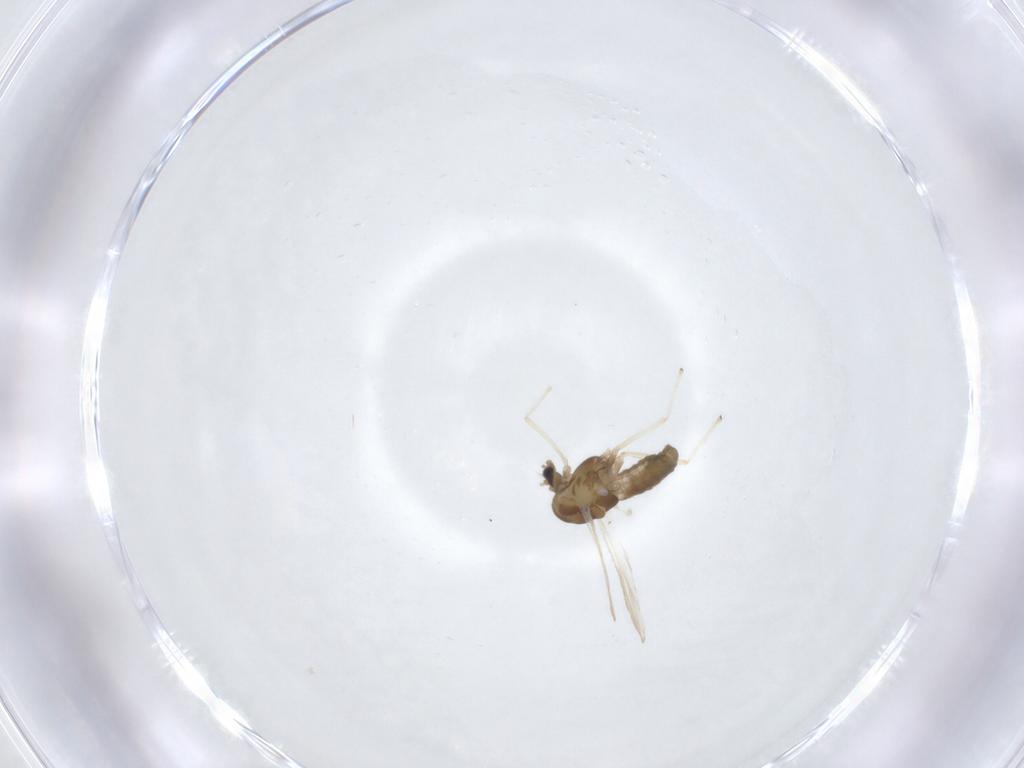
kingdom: Animalia
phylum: Arthropoda
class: Insecta
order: Diptera
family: Chironomidae
